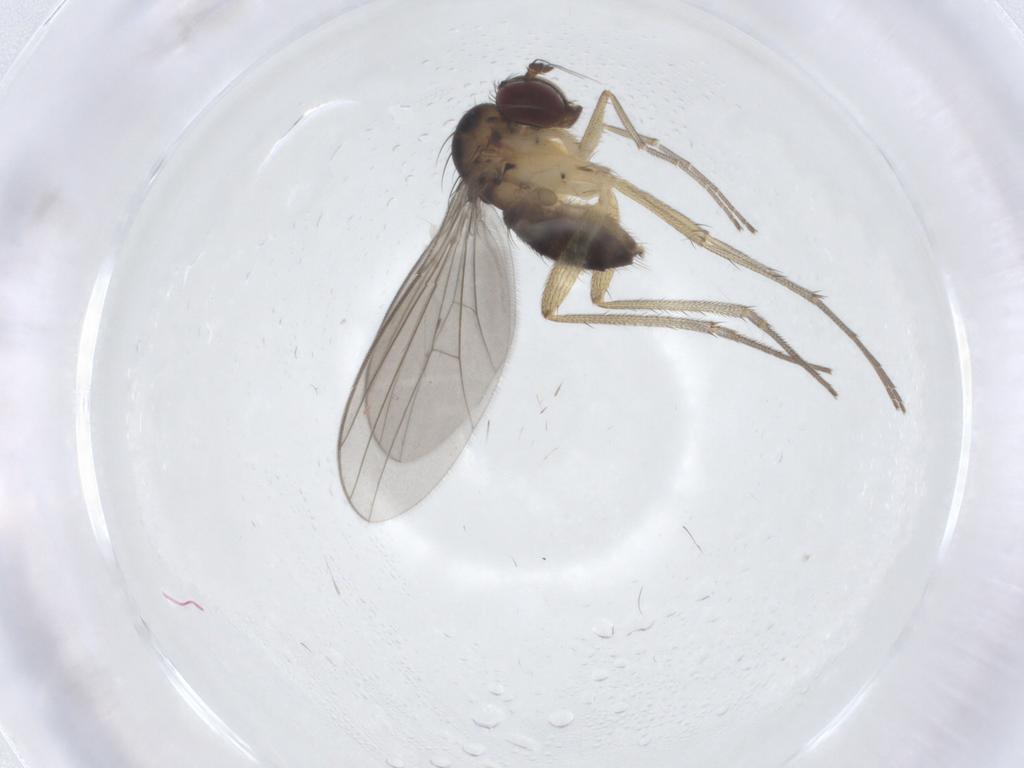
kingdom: Animalia
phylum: Arthropoda
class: Insecta
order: Diptera
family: Dolichopodidae
